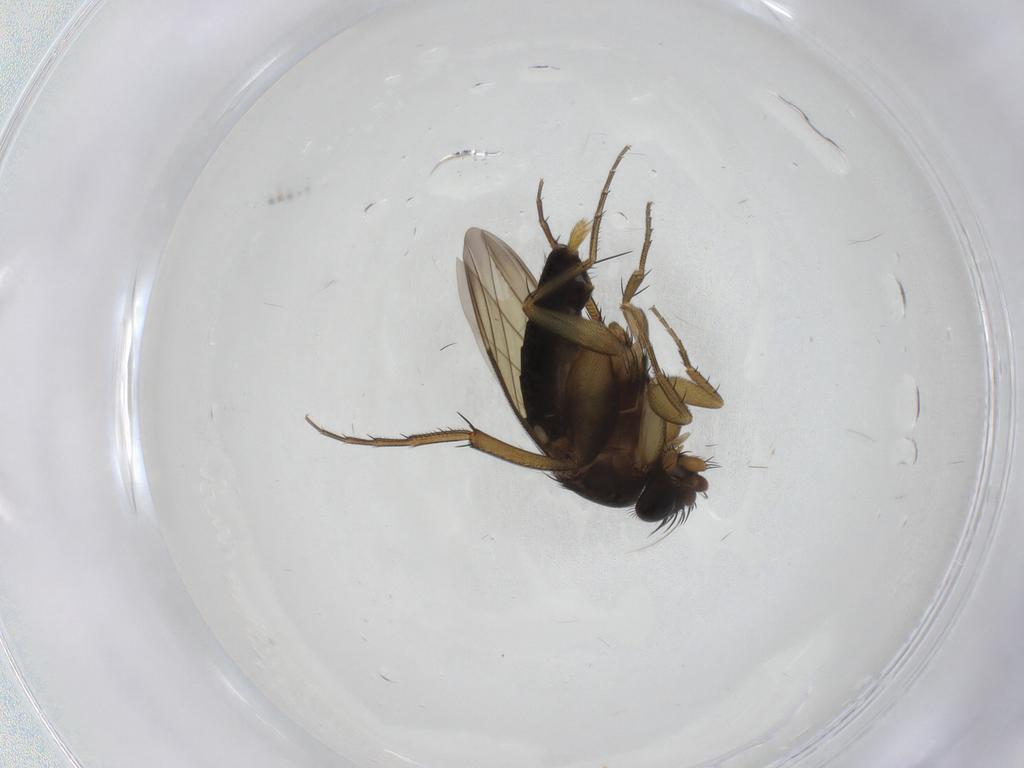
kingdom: Animalia
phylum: Arthropoda
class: Insecta
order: Diptera
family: Phoridae
